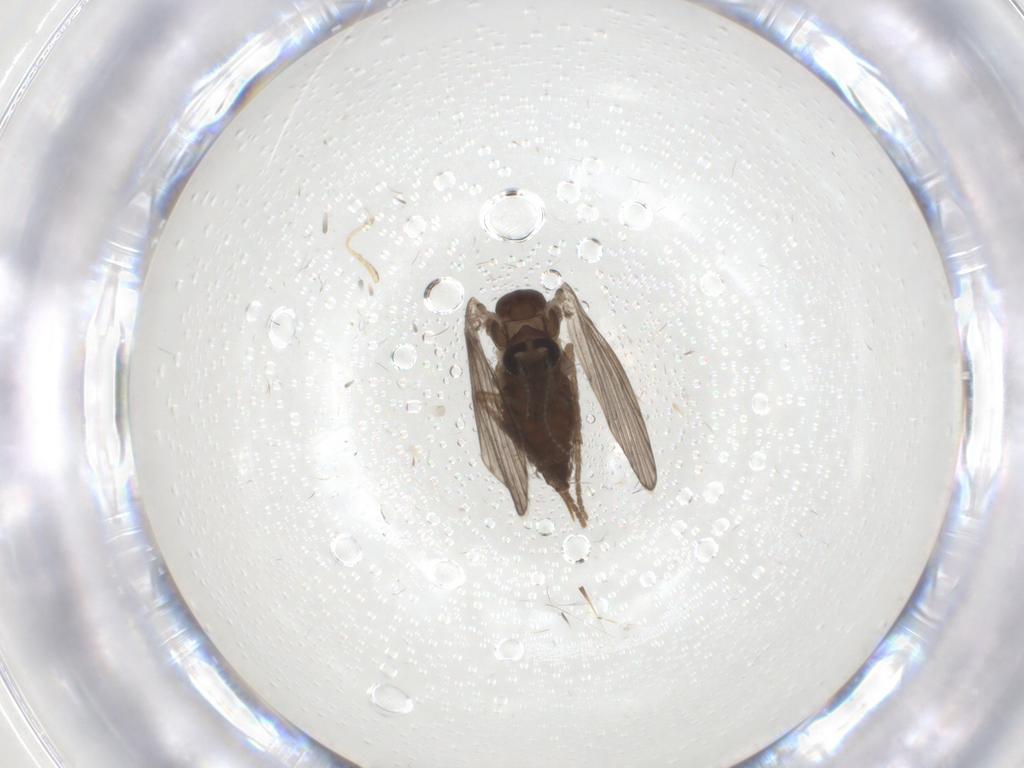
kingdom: Animalia
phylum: Arthropoda
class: Insecta
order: Diptera
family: Psychodidae
